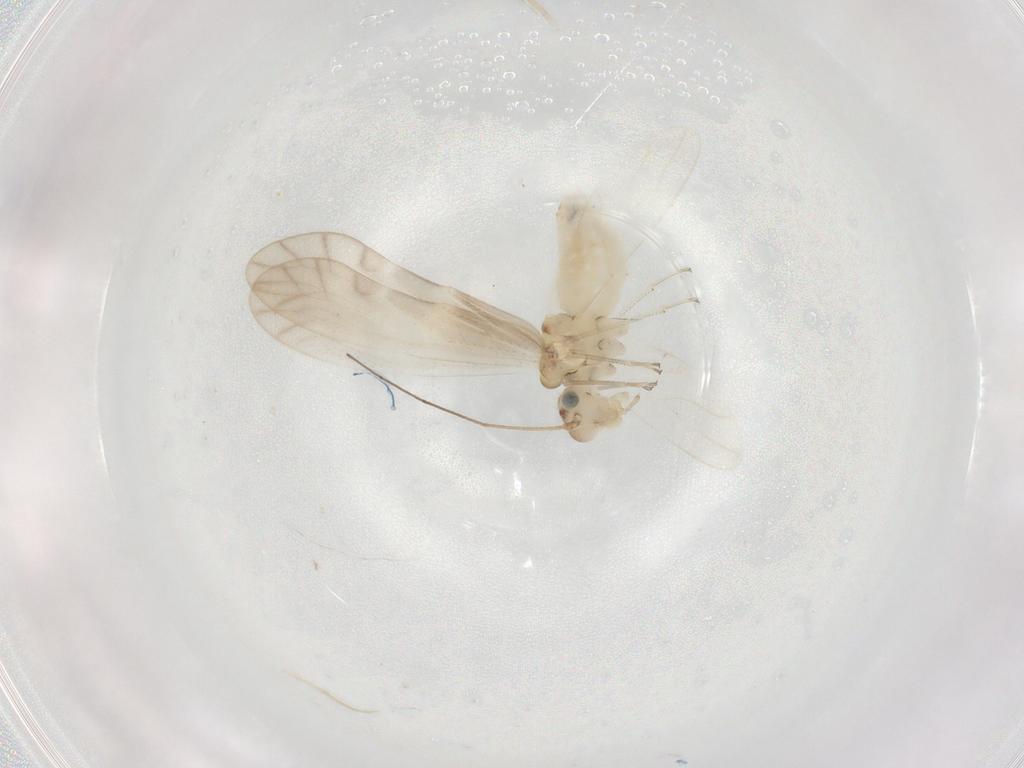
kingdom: Animalia
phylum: Arthropoda
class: Insecta
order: Psocodea
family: Caeciliusidae
